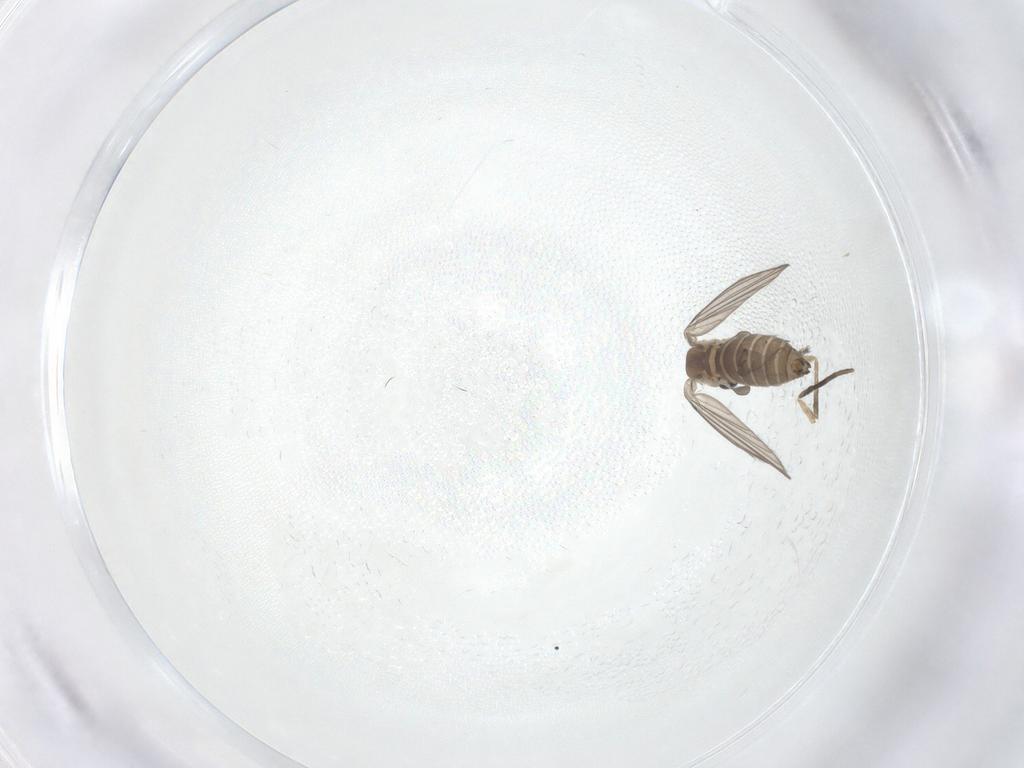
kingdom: Animalia
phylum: Arthropoda
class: Insecta
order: Diptera
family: Psychodidae
